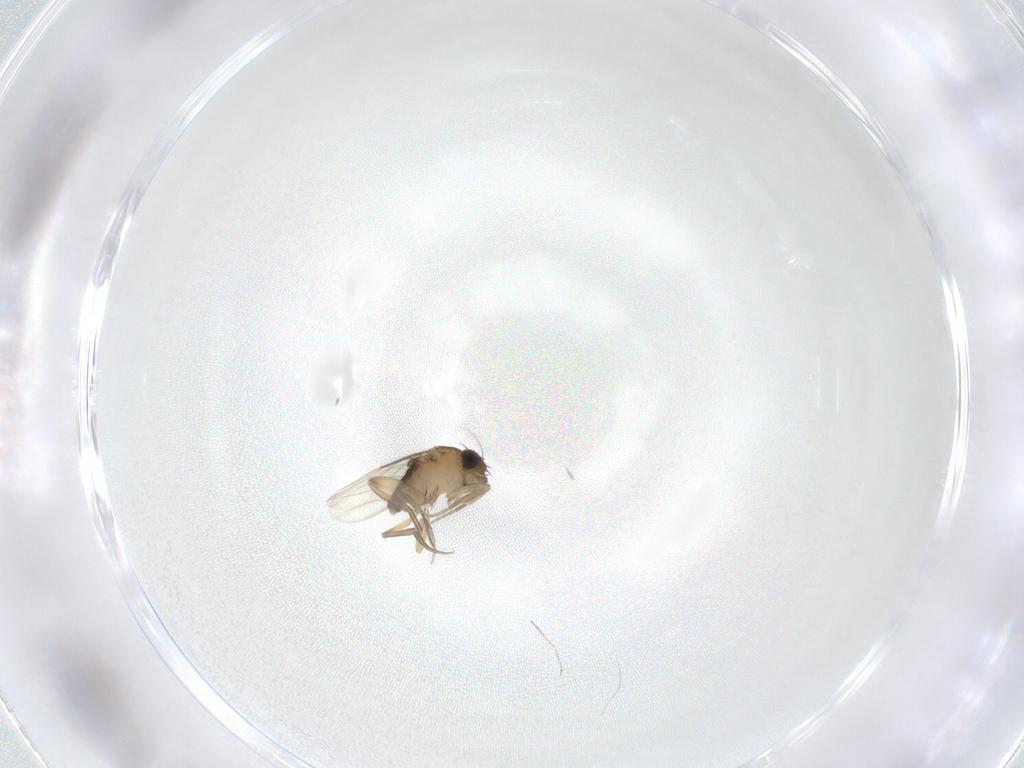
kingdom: Animalia
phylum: Arthropoda
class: Insecta
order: Diptera
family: Phoridae
